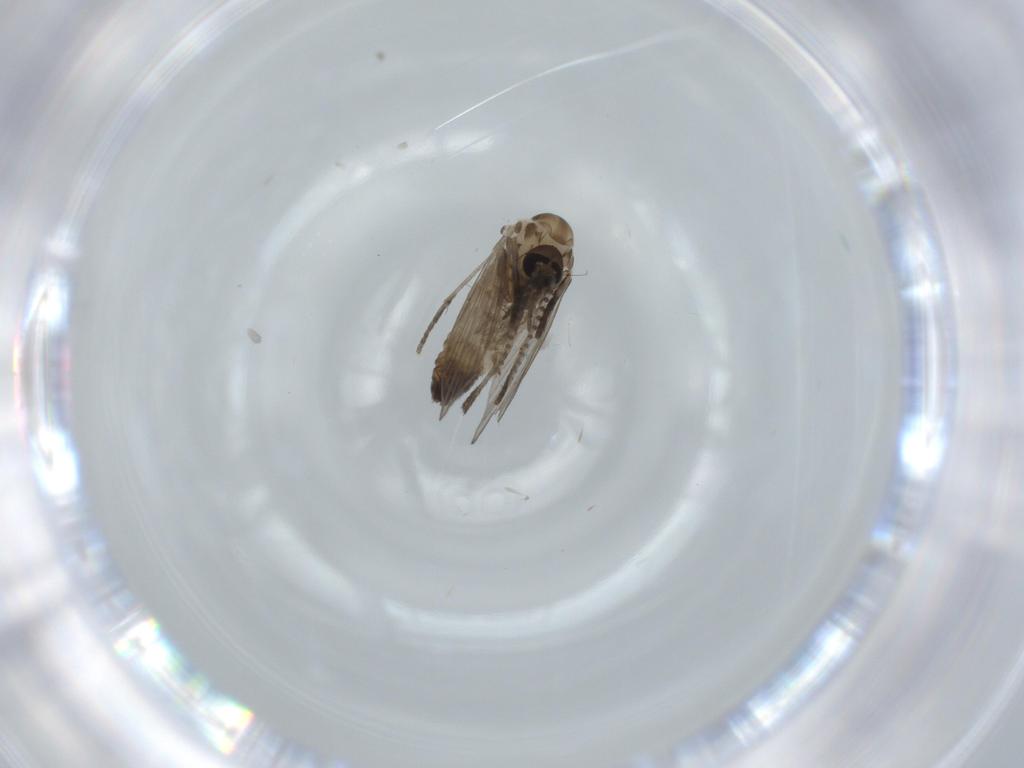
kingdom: Animalia
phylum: Arthropoda
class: Insecta
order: Diptera
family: Psychodidae
